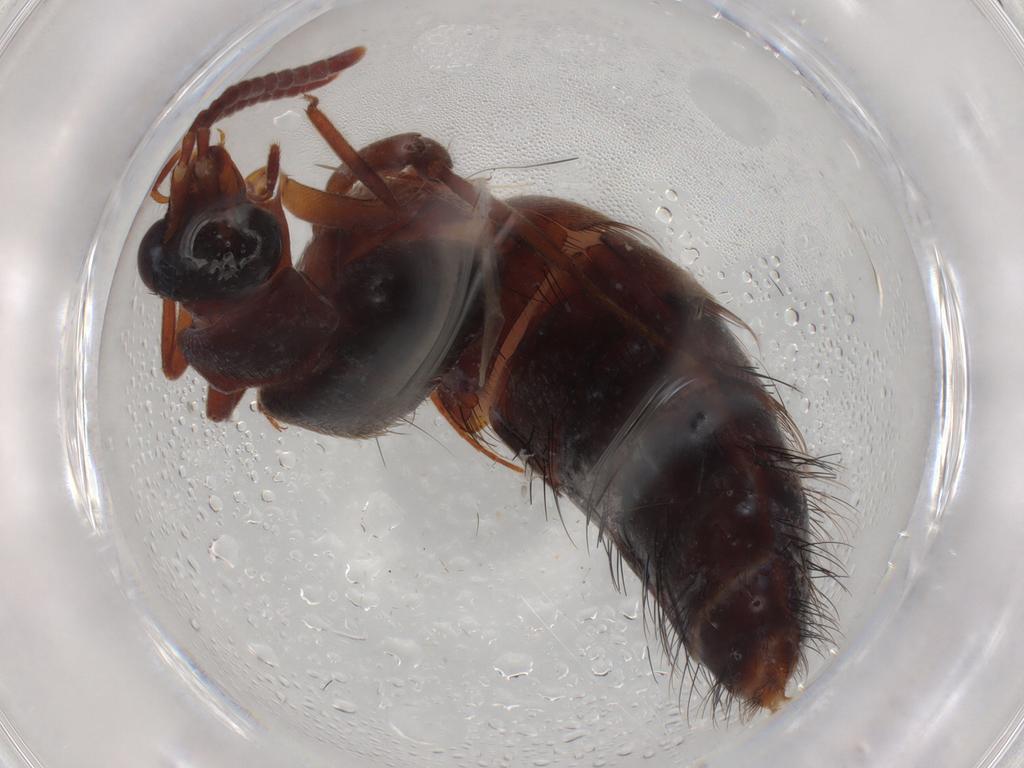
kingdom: Animalia
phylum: Arthropoda
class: Insecta
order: Coleoptera
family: Staphylinidae
